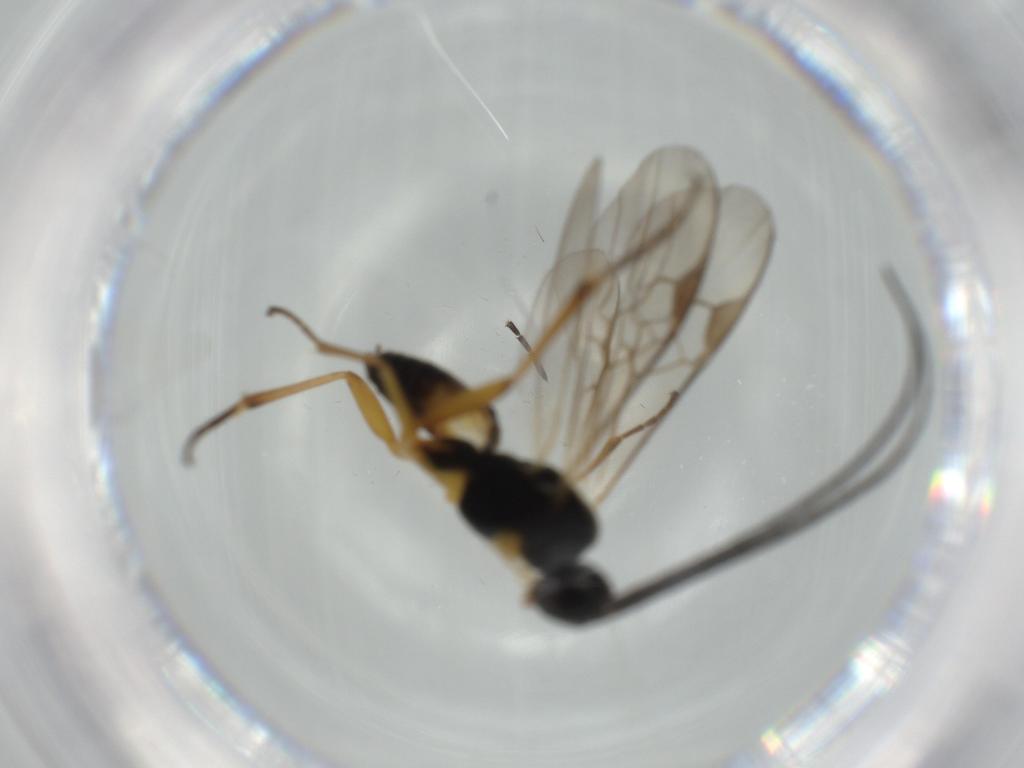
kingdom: Animalia
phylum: Arthropoda
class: Insecta
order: Hymenoptera
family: Braconidae
